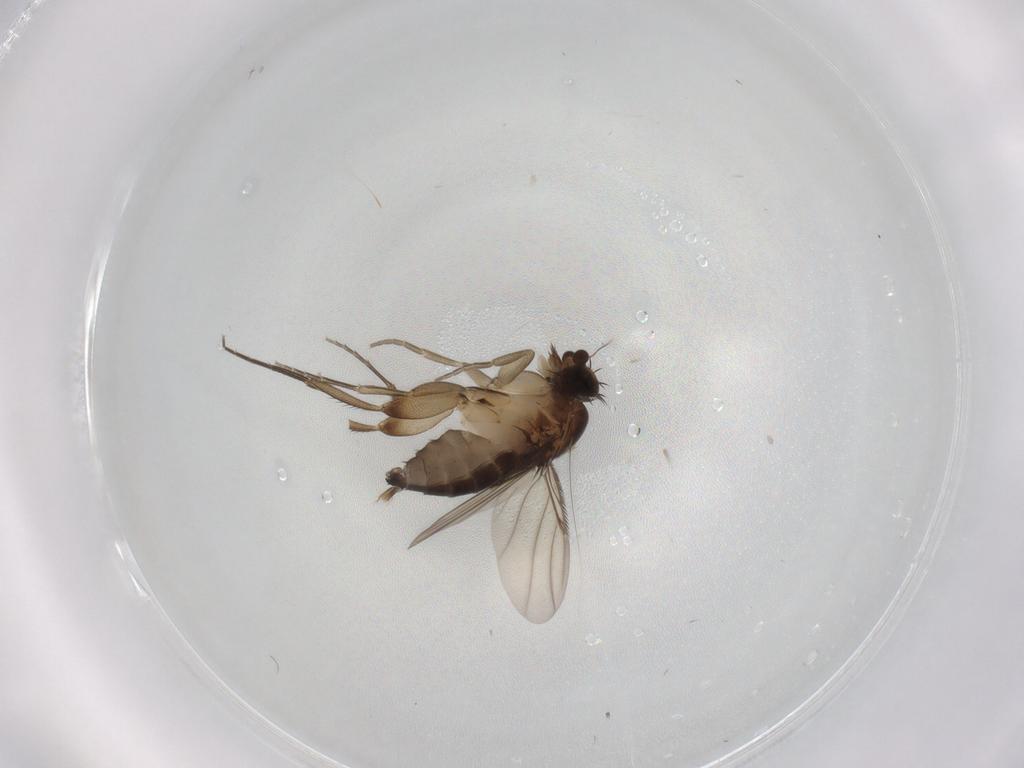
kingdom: Animalia
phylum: Arthropoda
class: Insecta
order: Diptera
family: Phoridae
